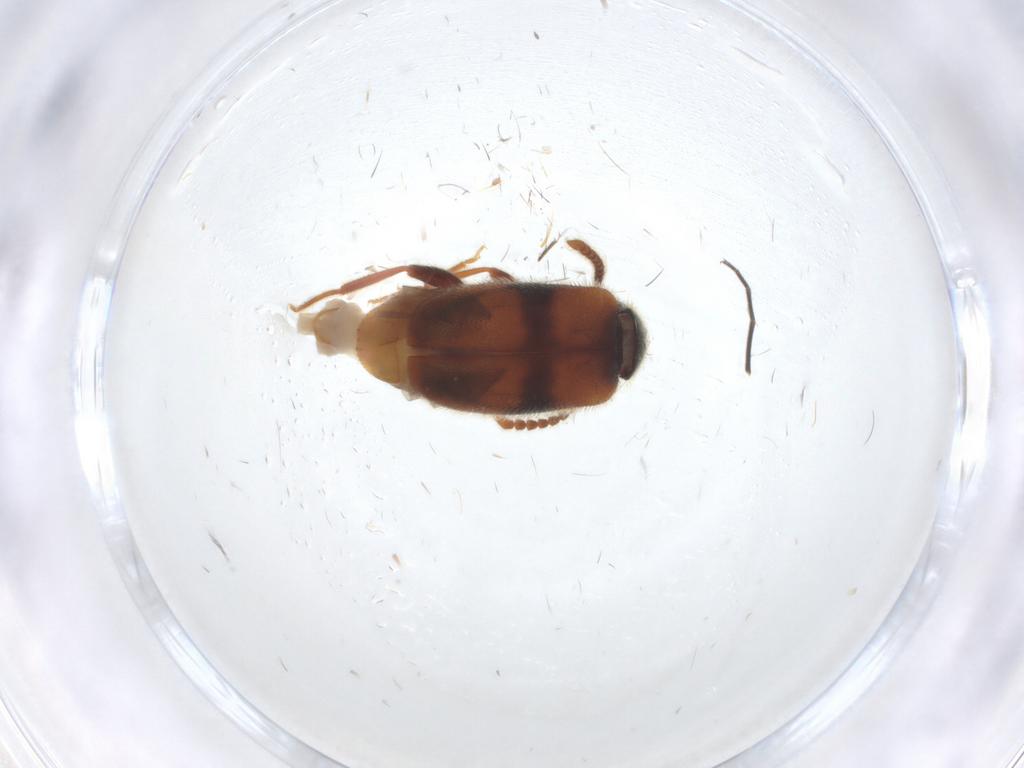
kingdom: Animalia
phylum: Arthropoda
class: Insecta
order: Coleoptera
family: Aderidae
